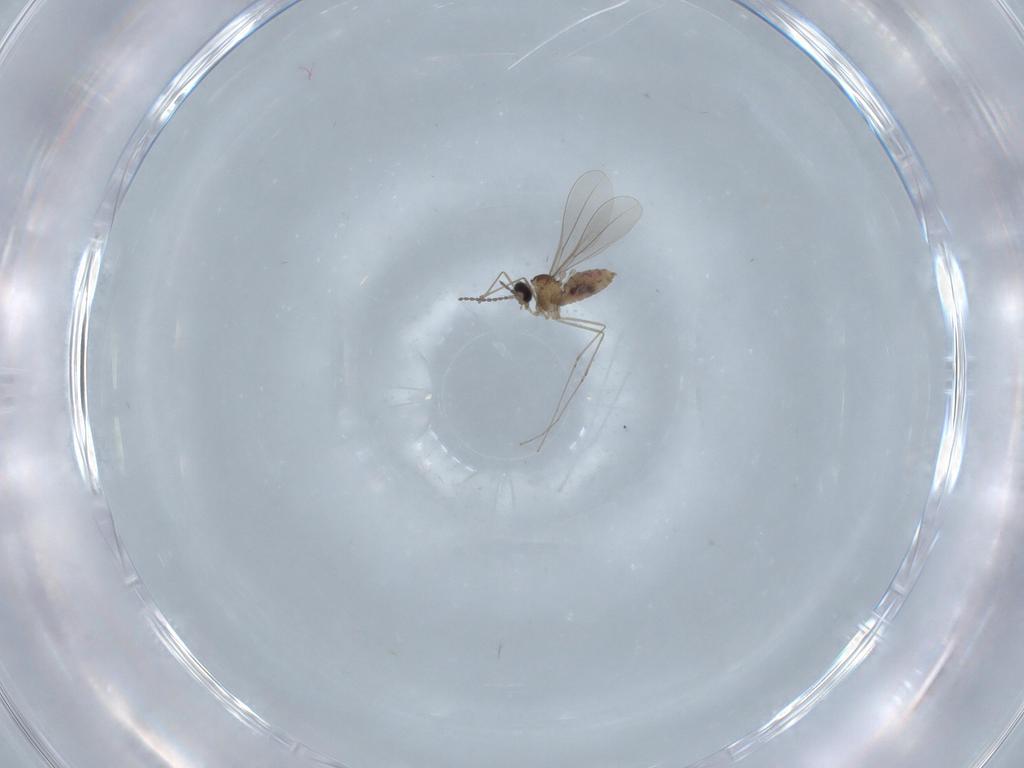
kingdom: Animalia
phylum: Arthropoda
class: Insecta
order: Diptera
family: Cecidomyiidae
